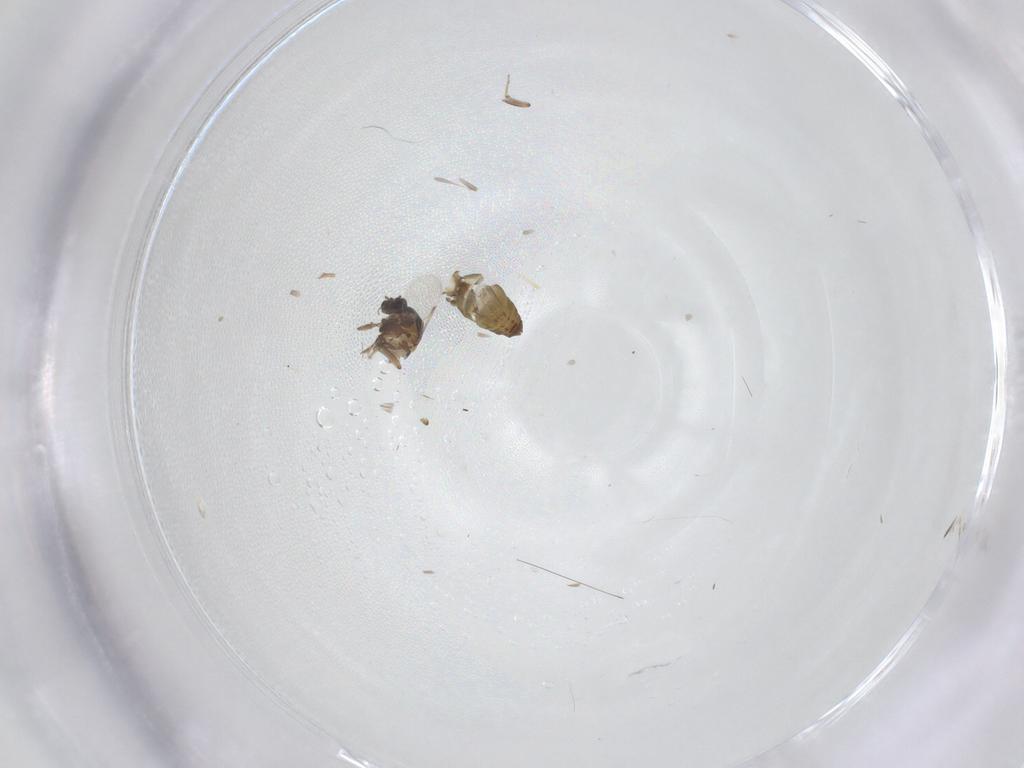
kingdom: Animalia
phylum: Arthropoda
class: Insecta
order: Diptera
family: Ceratopogonidae
